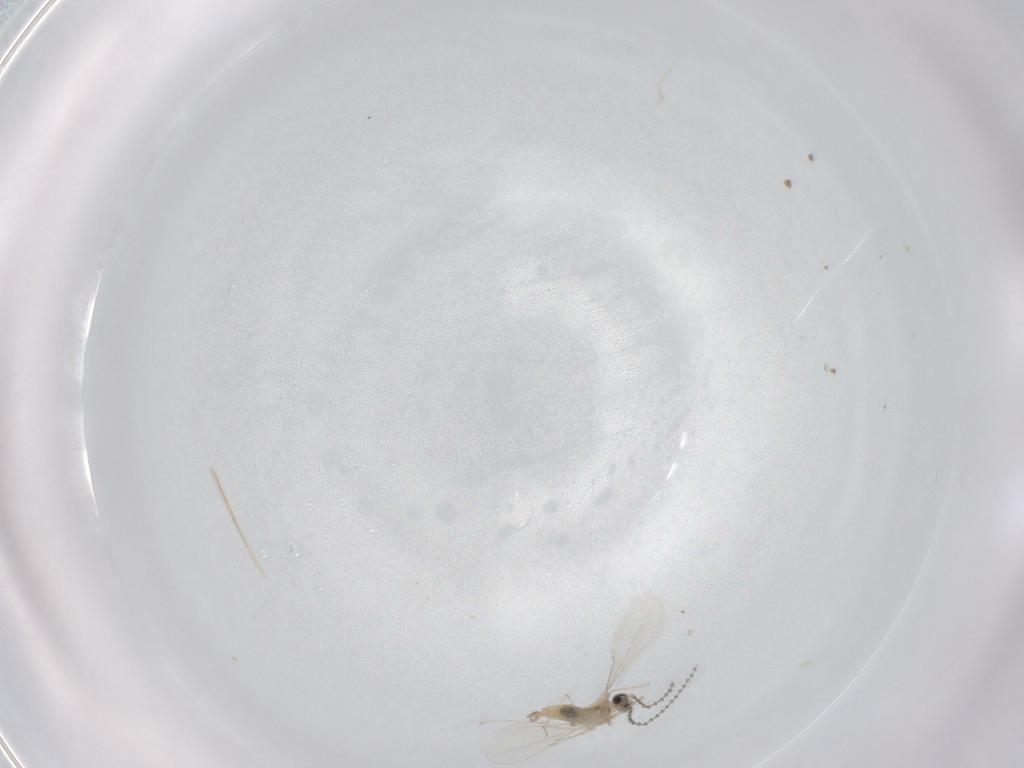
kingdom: Animalia
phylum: Arthropoda
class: Insecta
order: Diptera
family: Cecidomyiidae
